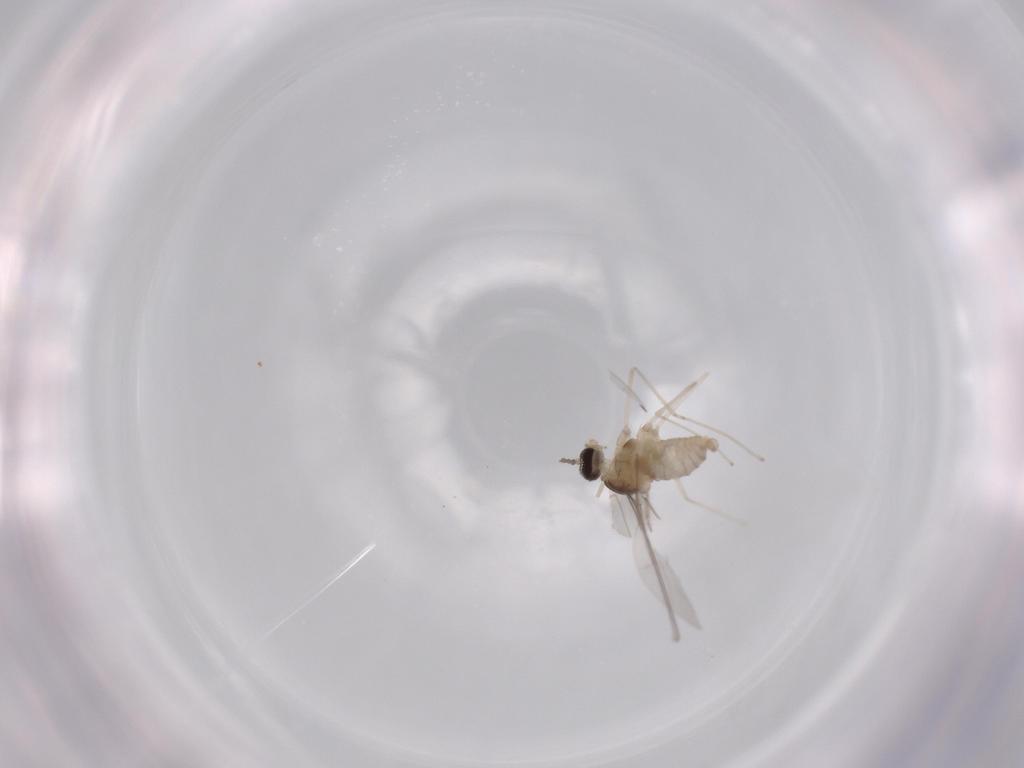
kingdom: Animalia
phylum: Arthropoda
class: Insecta
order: Diptera
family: Cecidomyiidae
